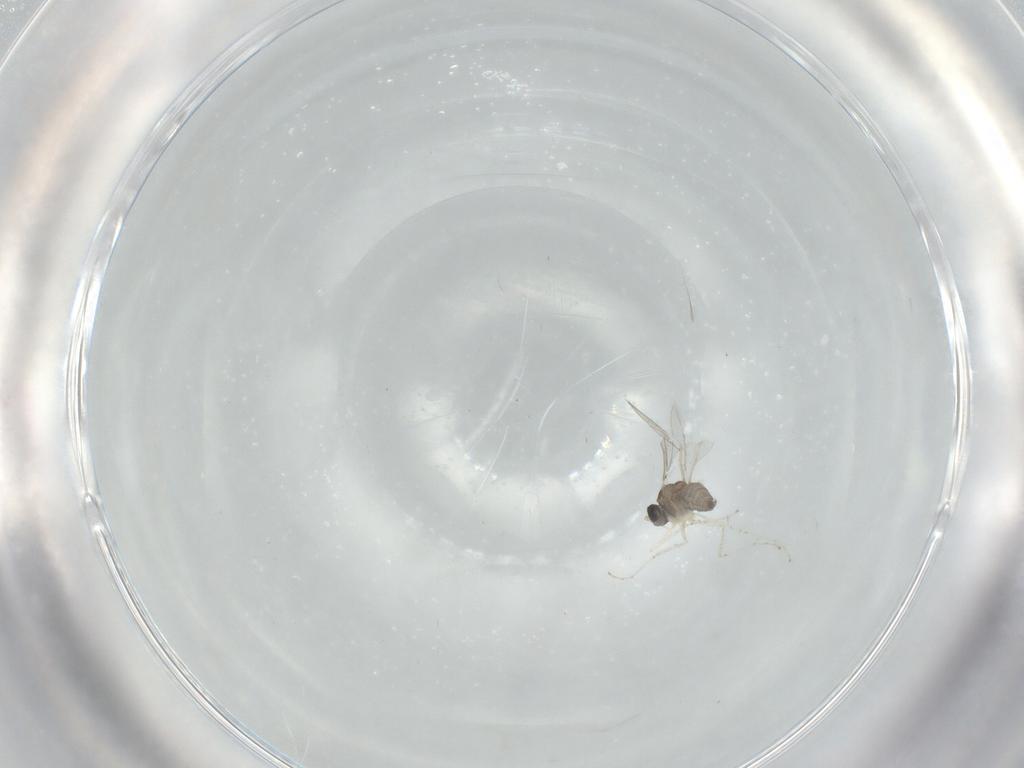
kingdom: Animalia
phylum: Arthropoda
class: Insecta
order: Diptera
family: Cecidomyiidae
